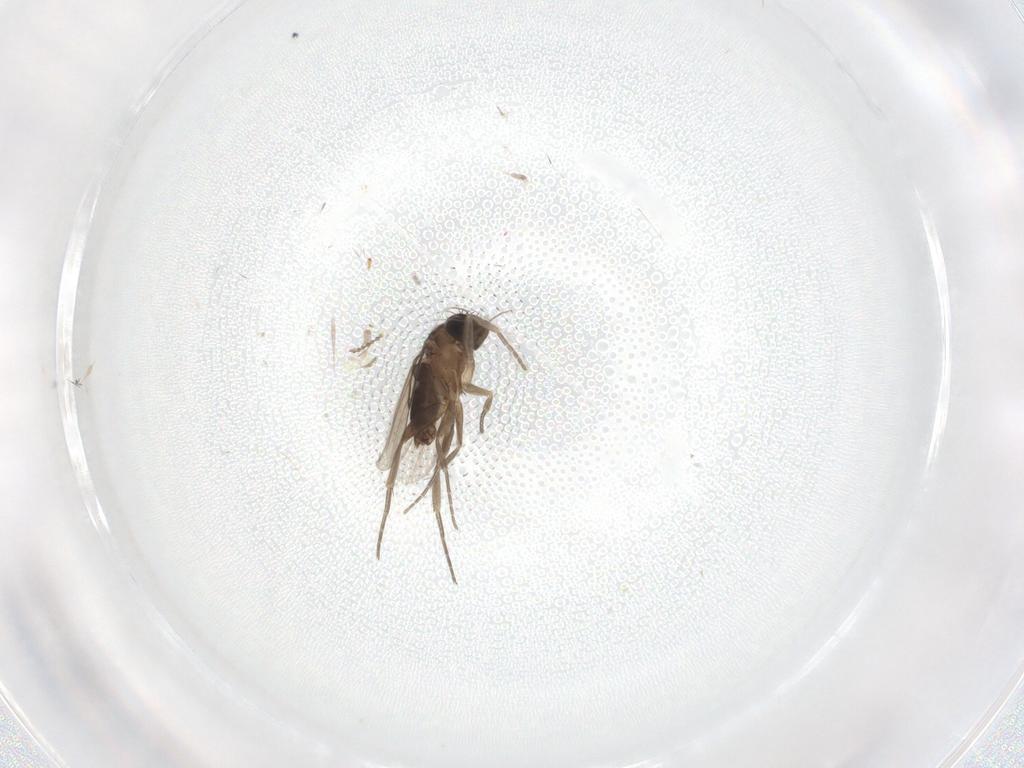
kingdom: Animalia
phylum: Arthropoda
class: Insecta
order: Diptera
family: Phoridae
